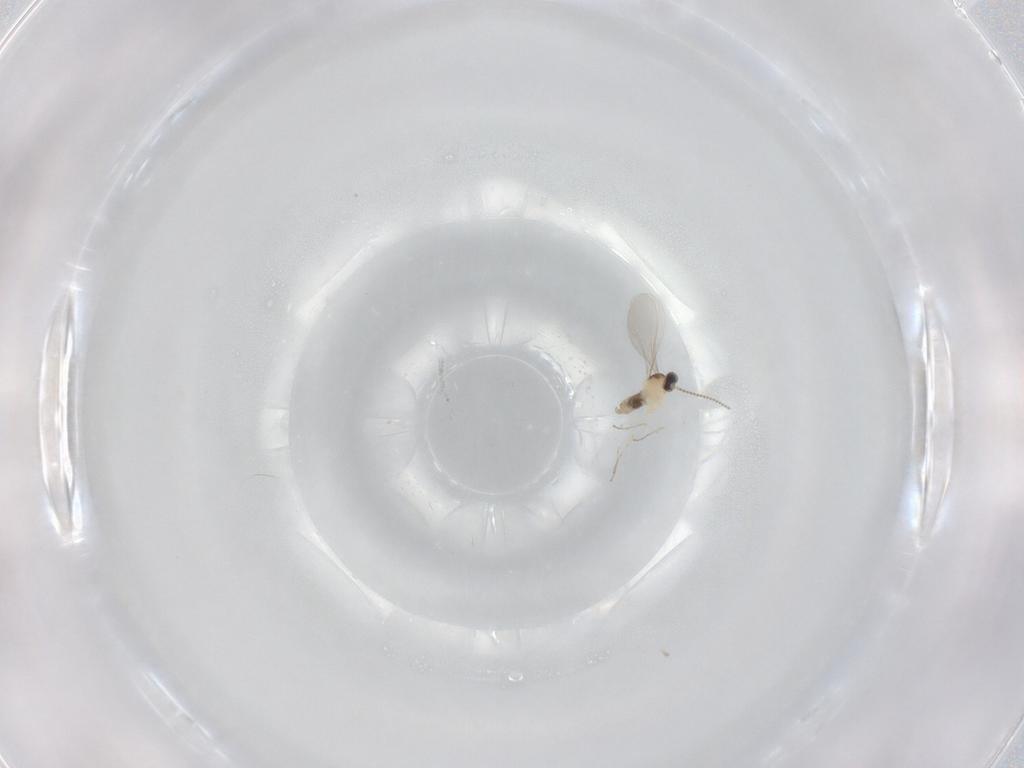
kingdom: Animalia
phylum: Arthropoda
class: Insecta
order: Diptera
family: Cecidomyiidae
